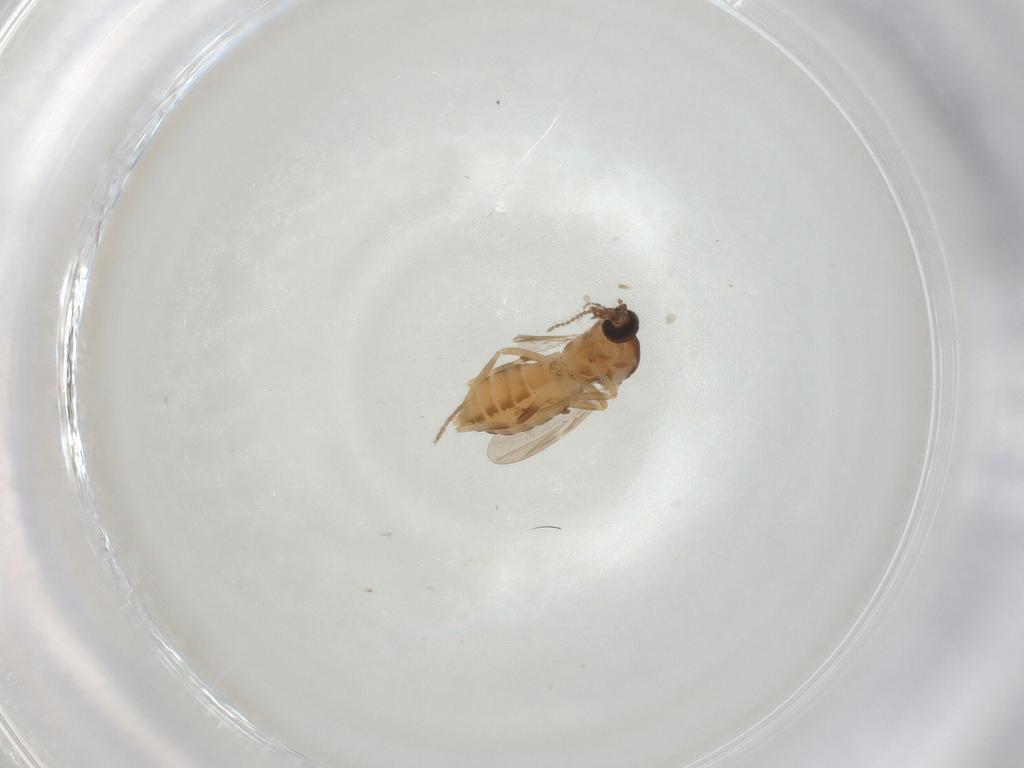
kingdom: Animalia
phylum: Arthropoda
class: Insecta
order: Diptera
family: Ceratopogonidae
